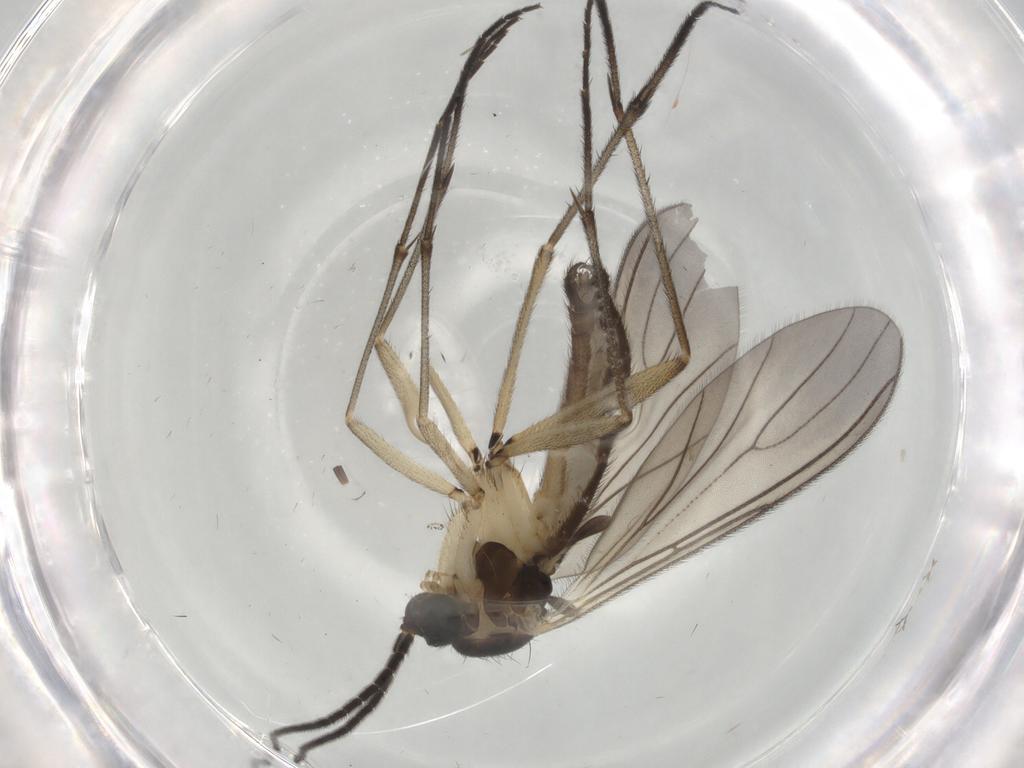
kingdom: Animalia
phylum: Arthropoda
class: Insecta
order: Diptera
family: Sciaridae
